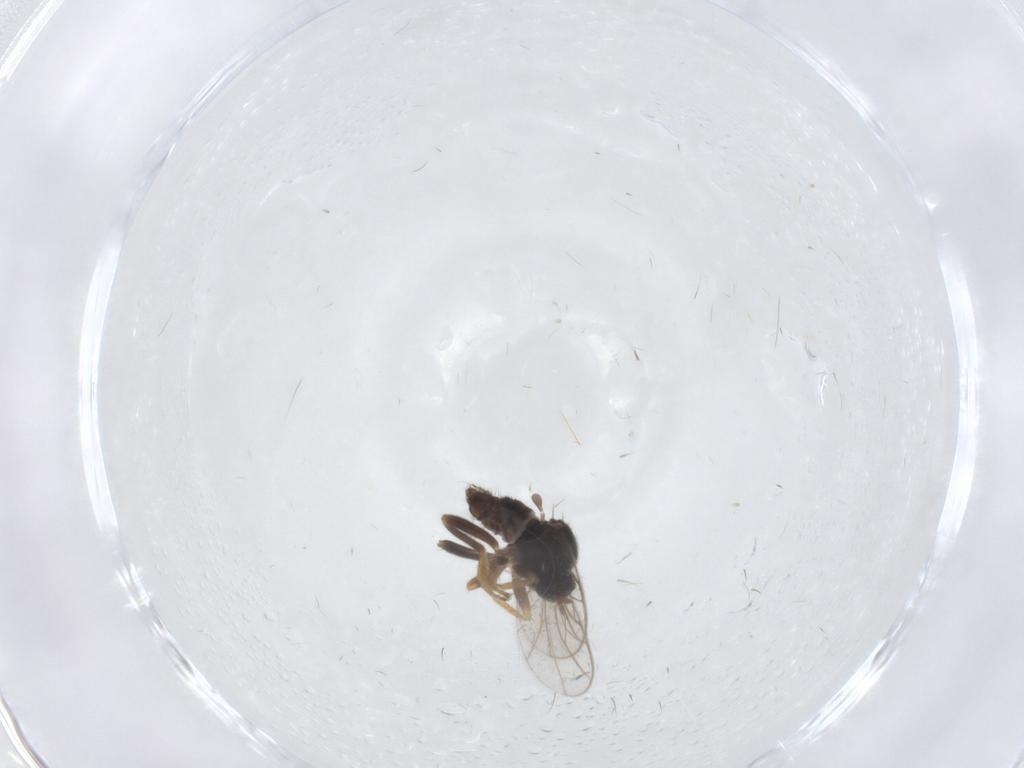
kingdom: Animalia
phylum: Arthropoda
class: Insecta
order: Diptera
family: Hybotidae
